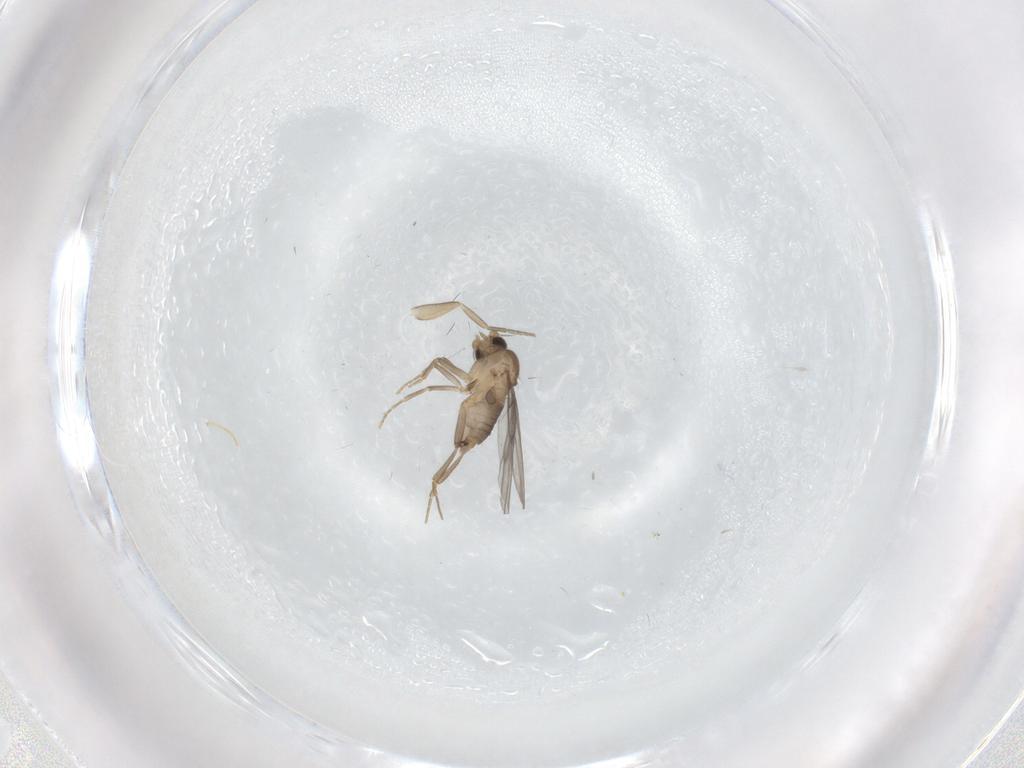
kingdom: Animalia
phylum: Arthropoda
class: Insecta
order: Diptera
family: Phoridae
